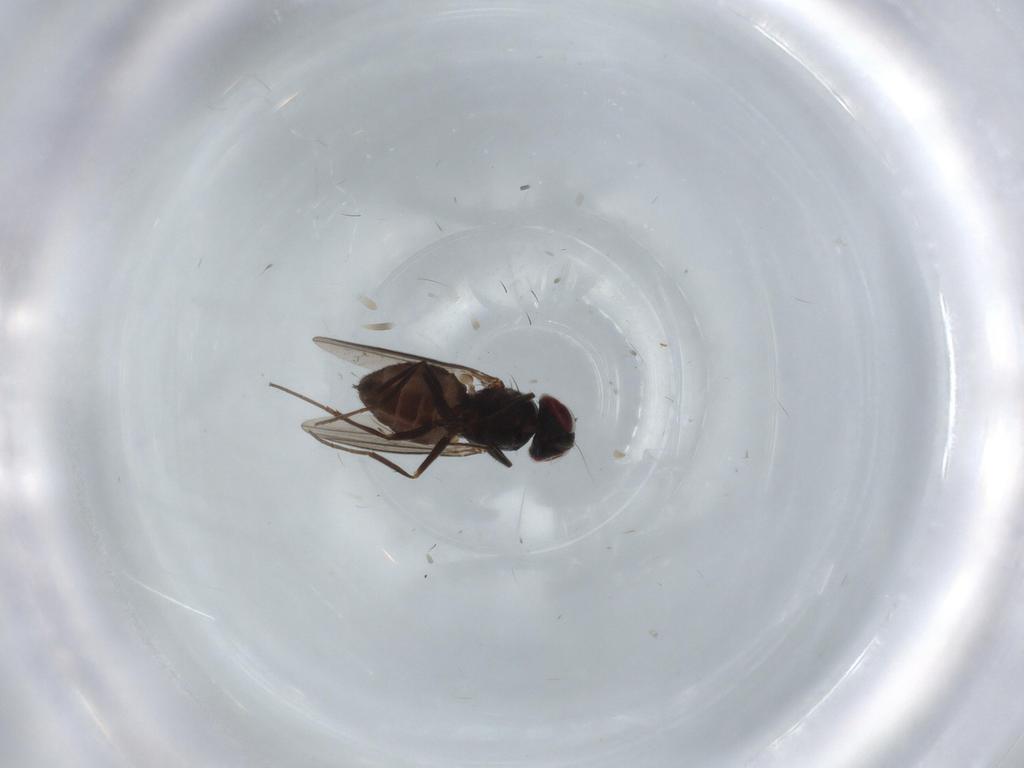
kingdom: Animalia
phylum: Arthropoda
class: Insecta
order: Diptera
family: Dolichopodidae
